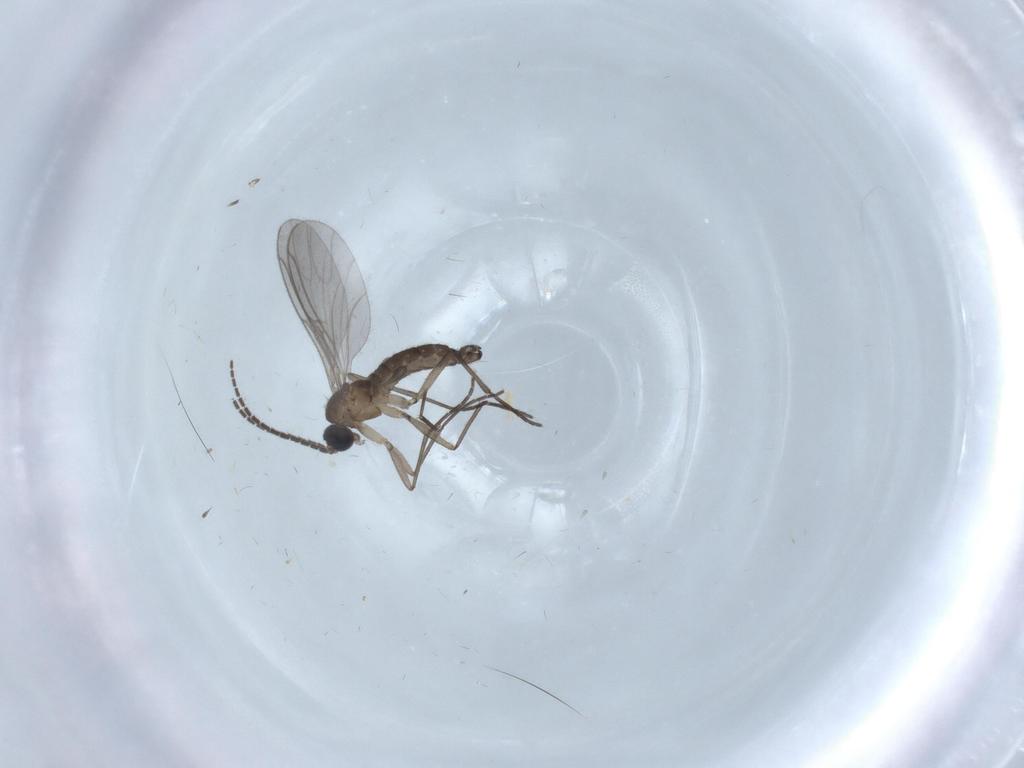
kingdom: Animalia
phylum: Arthropoda
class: Insecta
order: Diptera
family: Sciaridae
